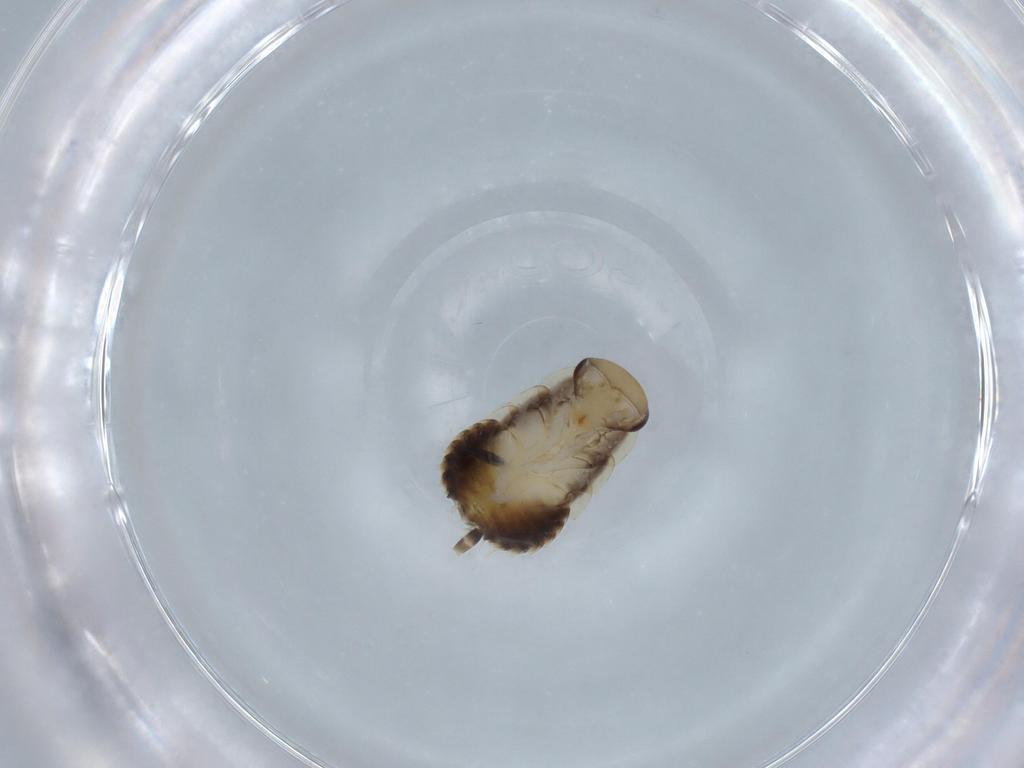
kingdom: Animalia
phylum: Arthropoda
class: Insecta
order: Blattodea
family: Ectobiidae
